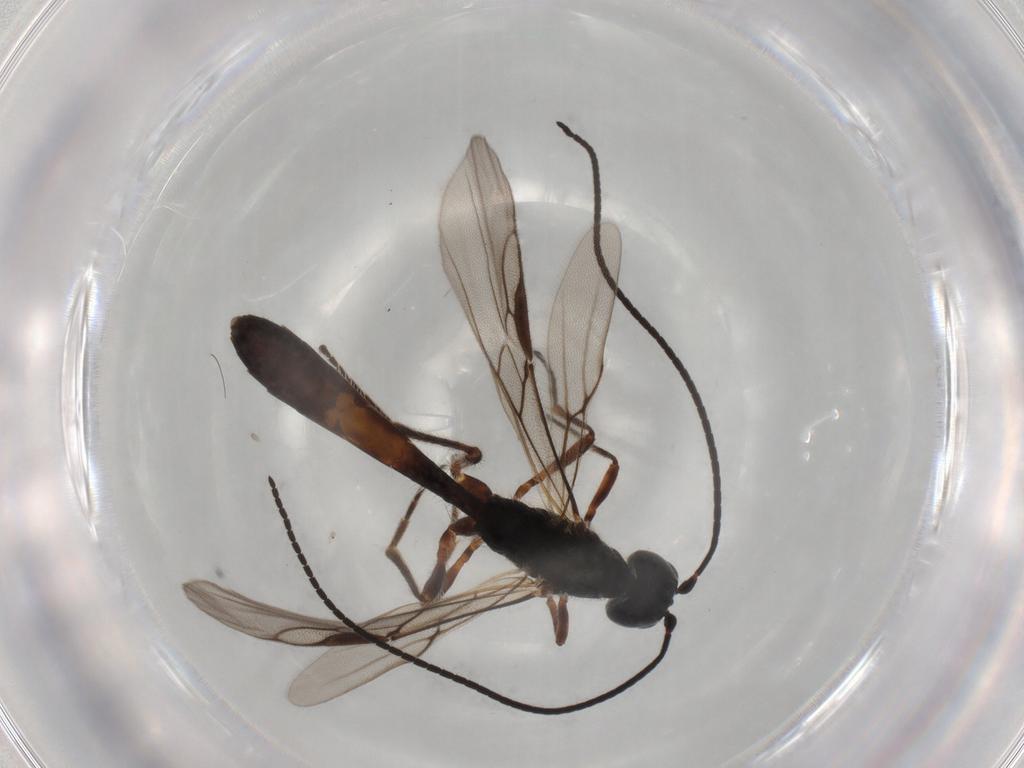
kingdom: Animalia
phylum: Arthropoda
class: Insecta
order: Hymenoptera
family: Braconidae
